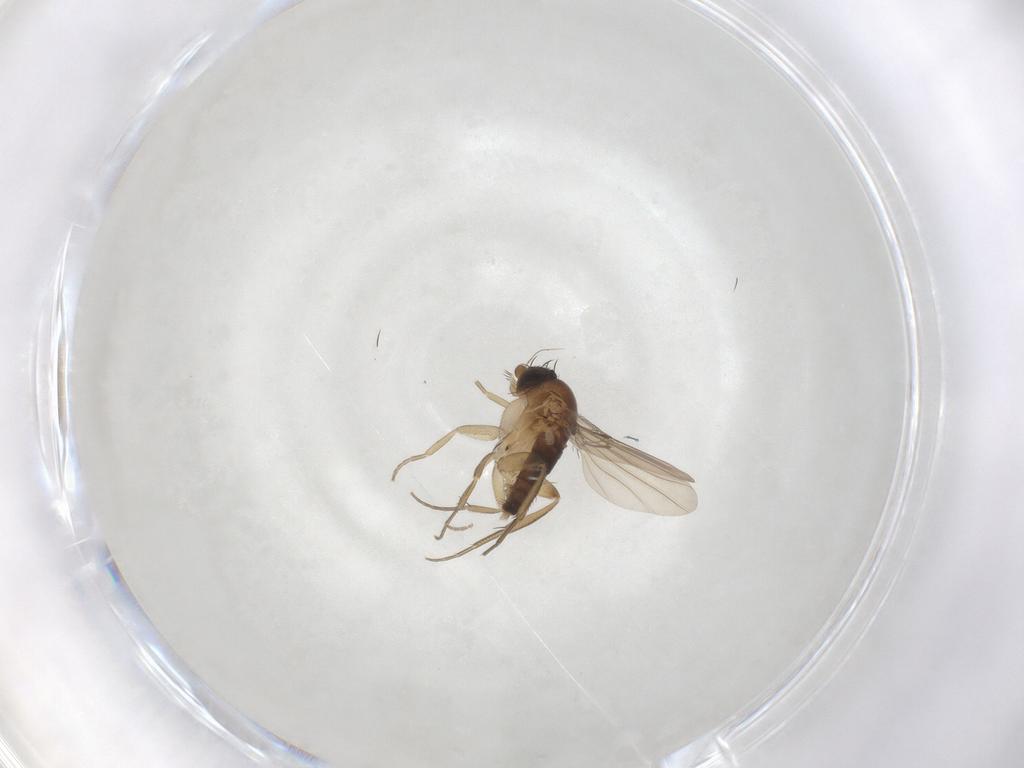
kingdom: Animalia
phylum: Arthropoda
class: Insecta
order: Diptera
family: Phoridae
